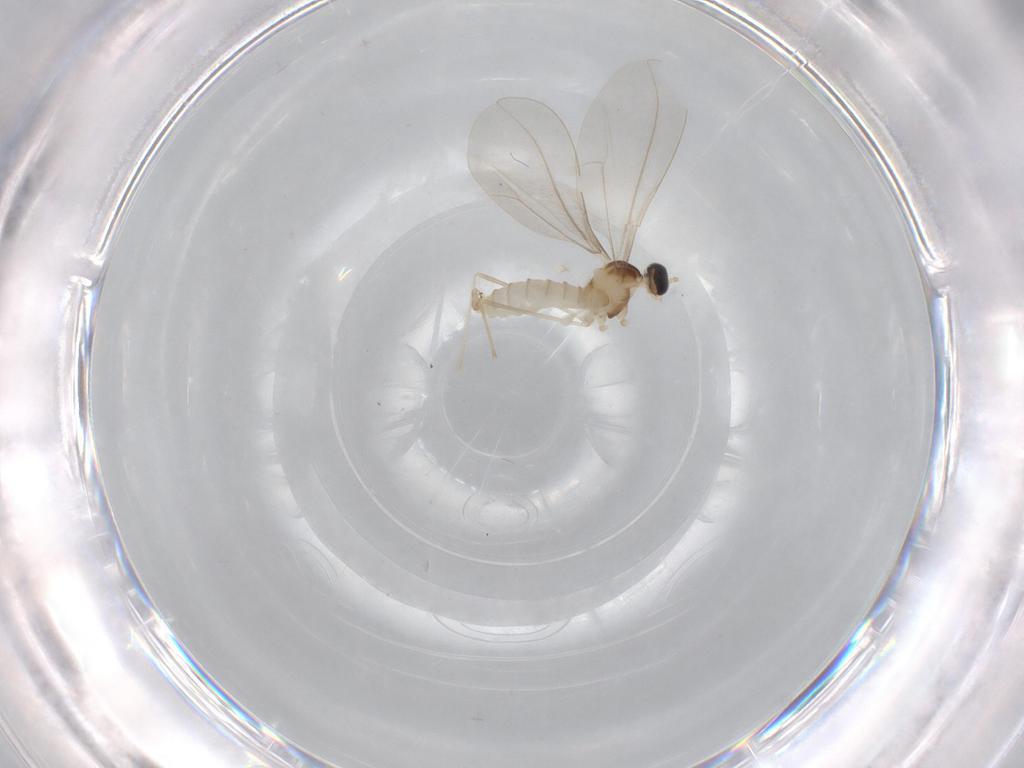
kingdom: Animalia
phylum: Arthropoda
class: Insecta
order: Diptera
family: Sciaridae
